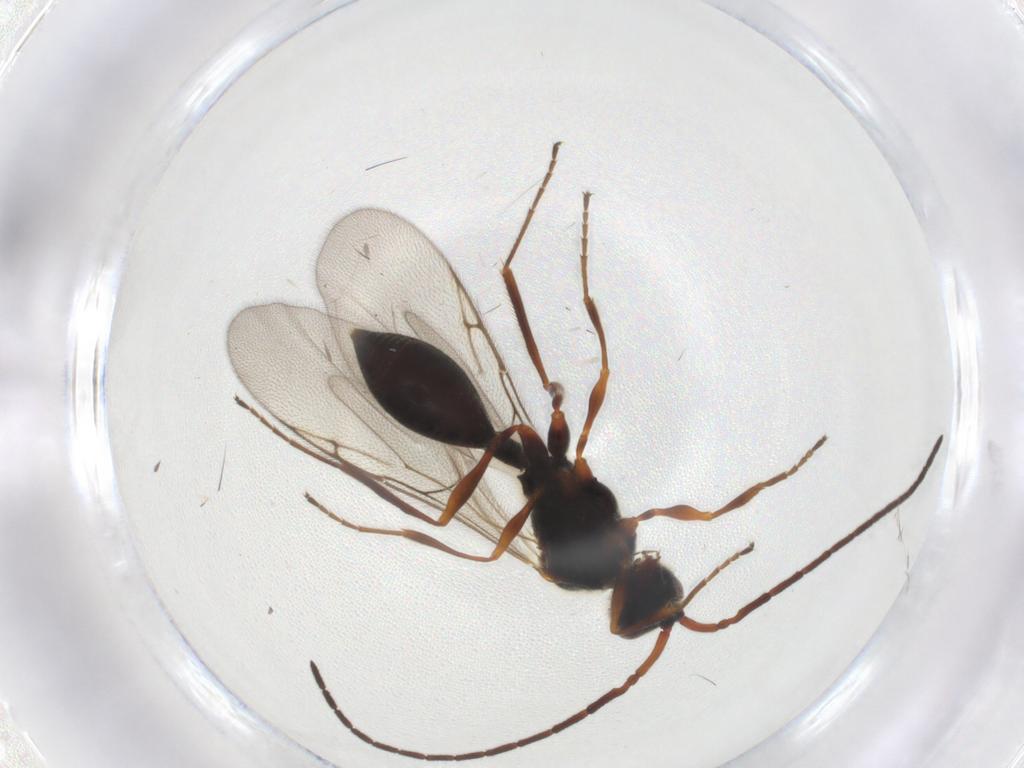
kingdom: Animalia
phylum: Arthropoda
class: Insecta
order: Hymenoptera
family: Diapriidae
